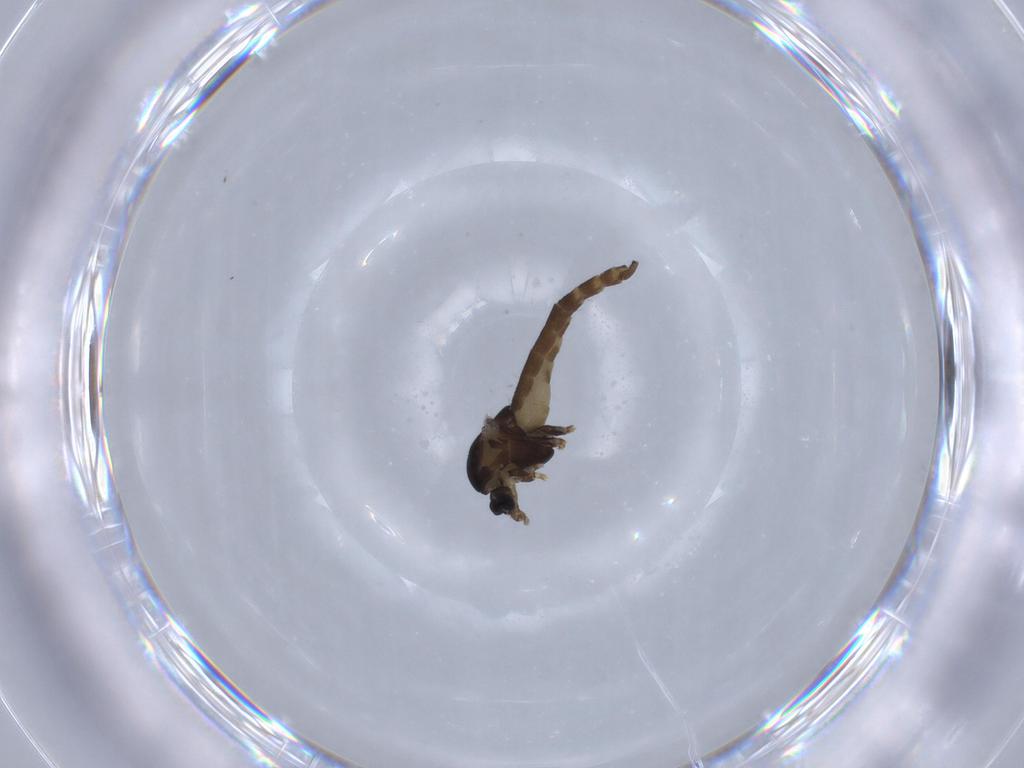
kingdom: Animalia
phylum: Arthropoda
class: Insecta
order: Diptera
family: Chironomidae
